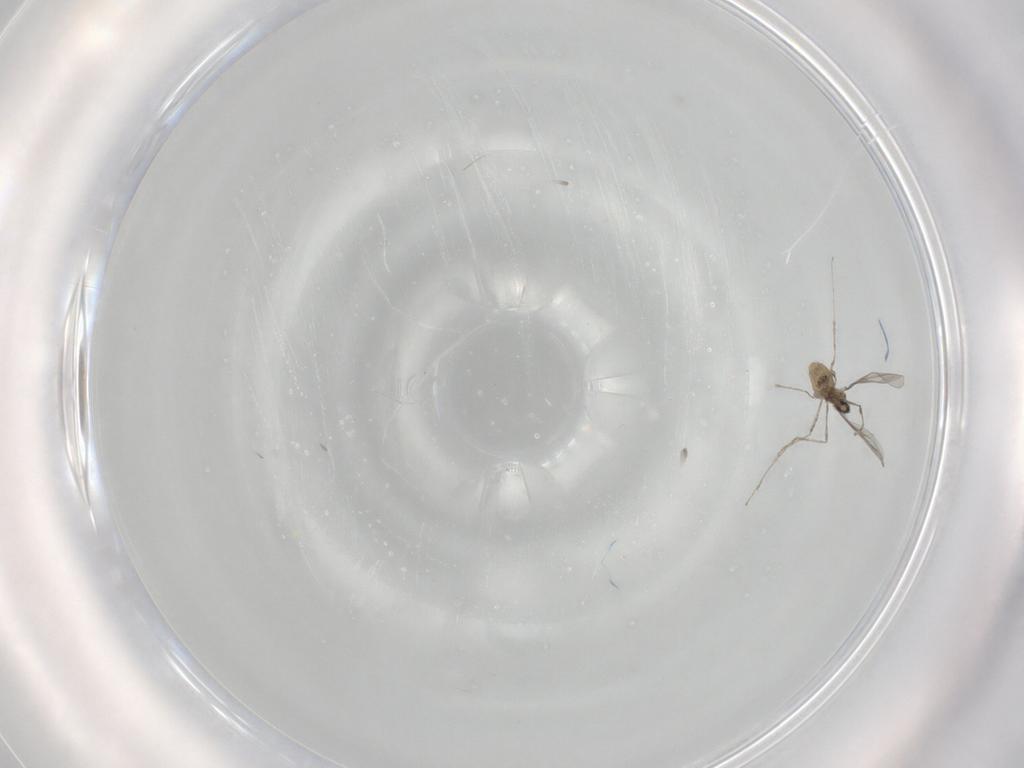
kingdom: Animalia
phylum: Arthropoda
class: Insecta
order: Diptera
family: Cecidomyiidae
